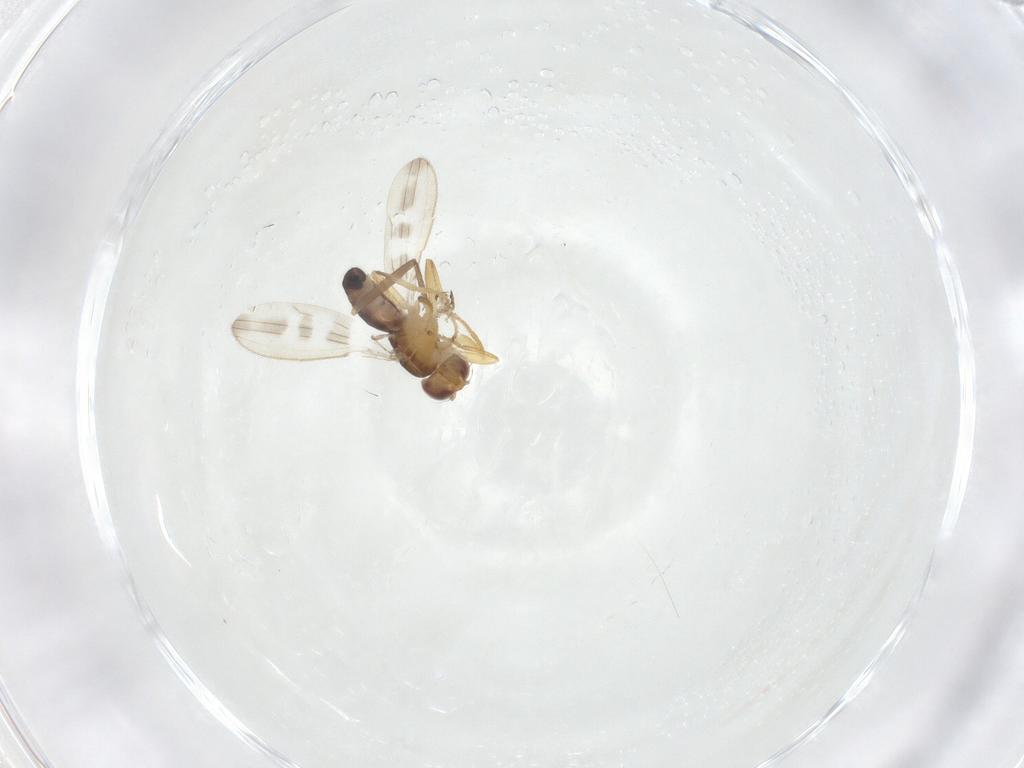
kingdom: Animalia
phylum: Arthropoda
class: Insecta
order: Diptera
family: Periscelididae
